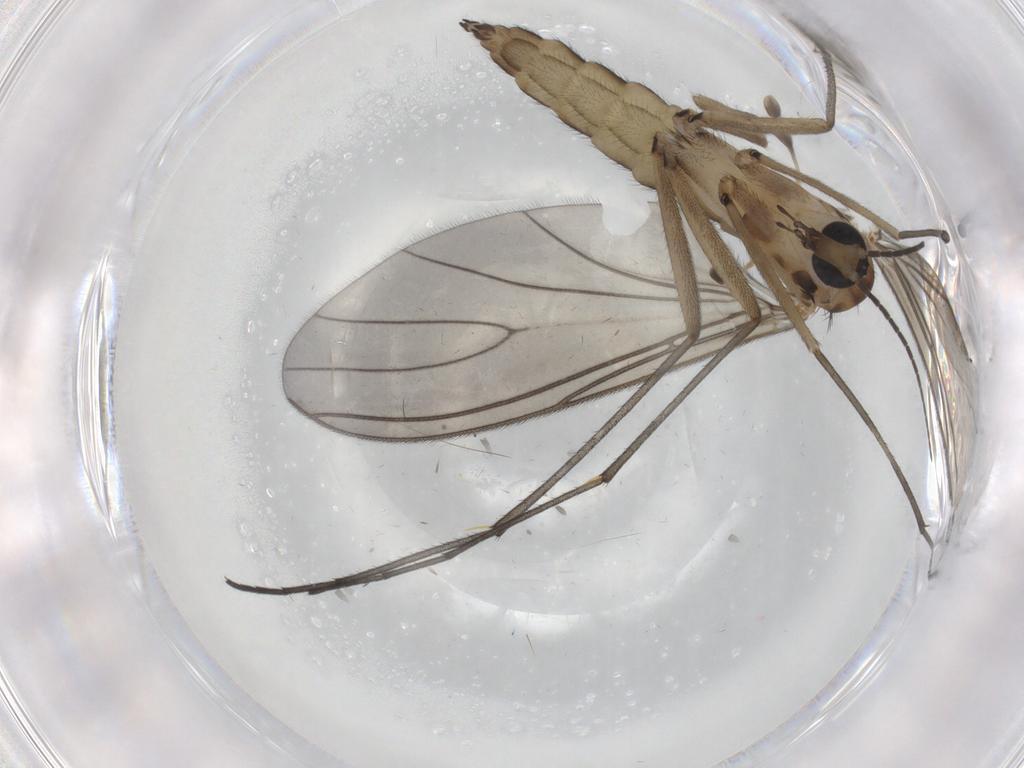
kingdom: Animalia
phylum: Arthropoda
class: Insecta
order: Diptera
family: Sciaridae
